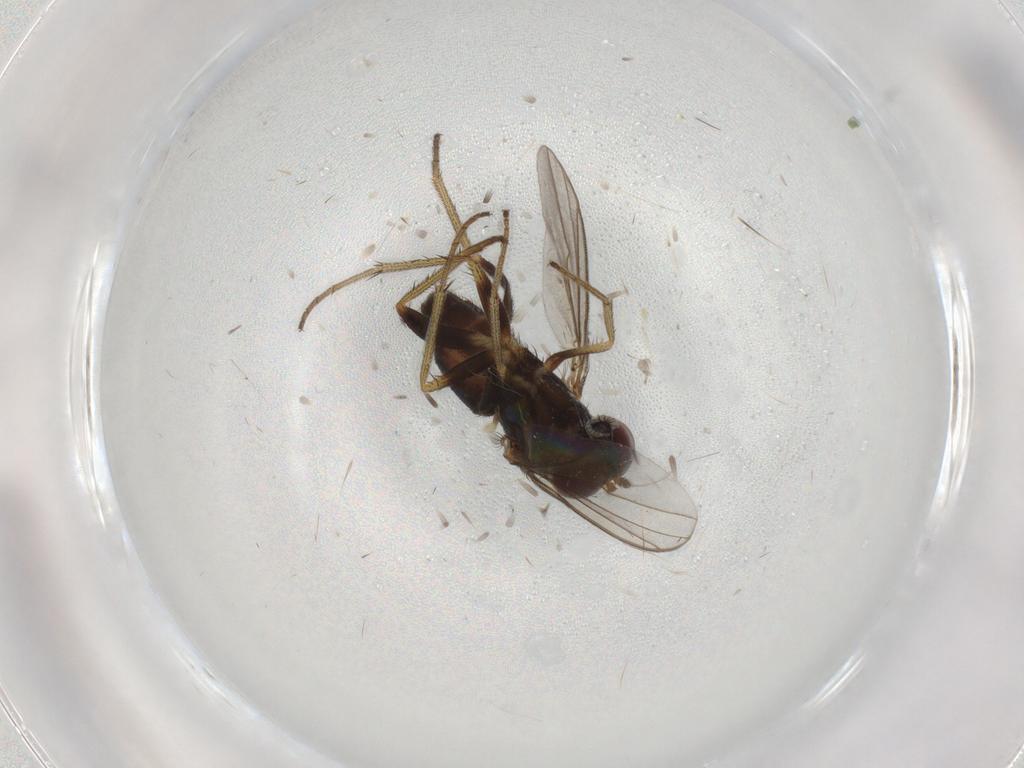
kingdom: Animalia
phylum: Arthropoda
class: Insecta
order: Diptera
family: Dolichopodidae
